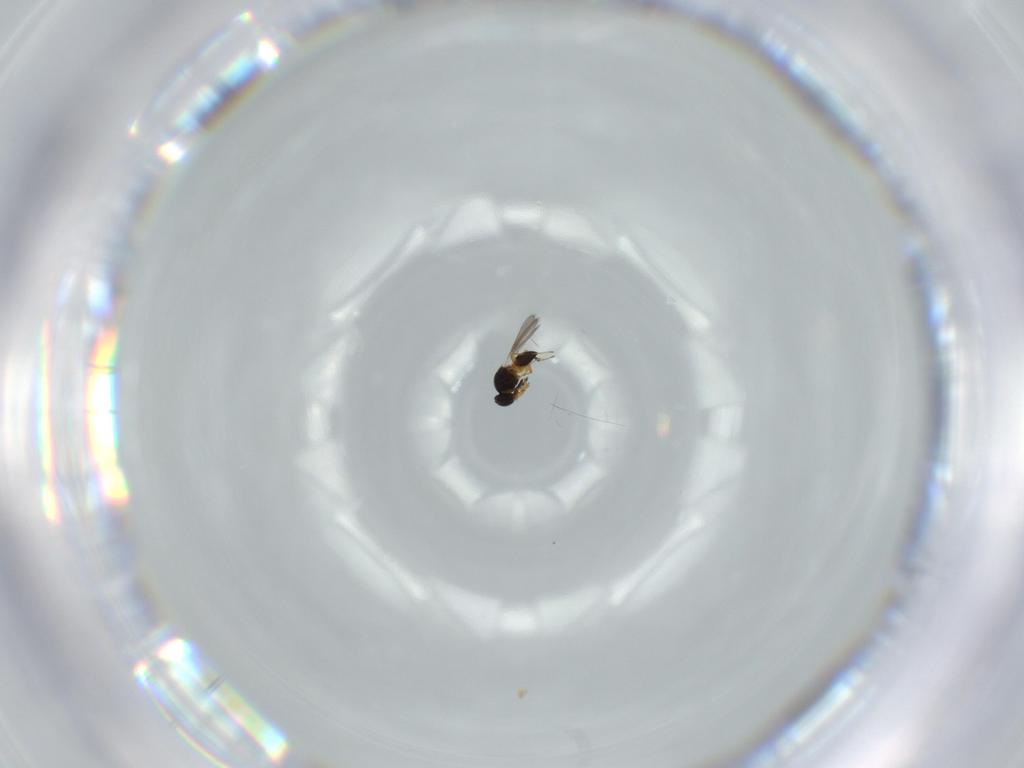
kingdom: Animalia
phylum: Arthropoda
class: Insecta
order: Hymenoptera
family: Platygastridae
